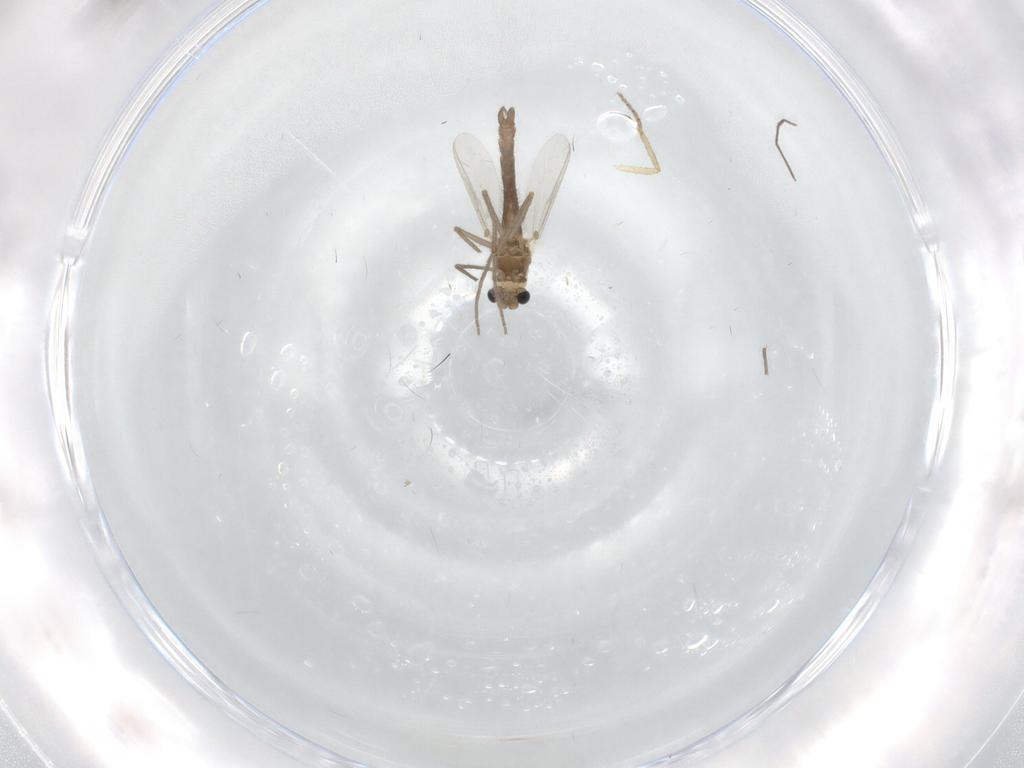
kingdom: Animalia
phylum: Arthropoda
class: Insecta
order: Diptera
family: Chironomidae
